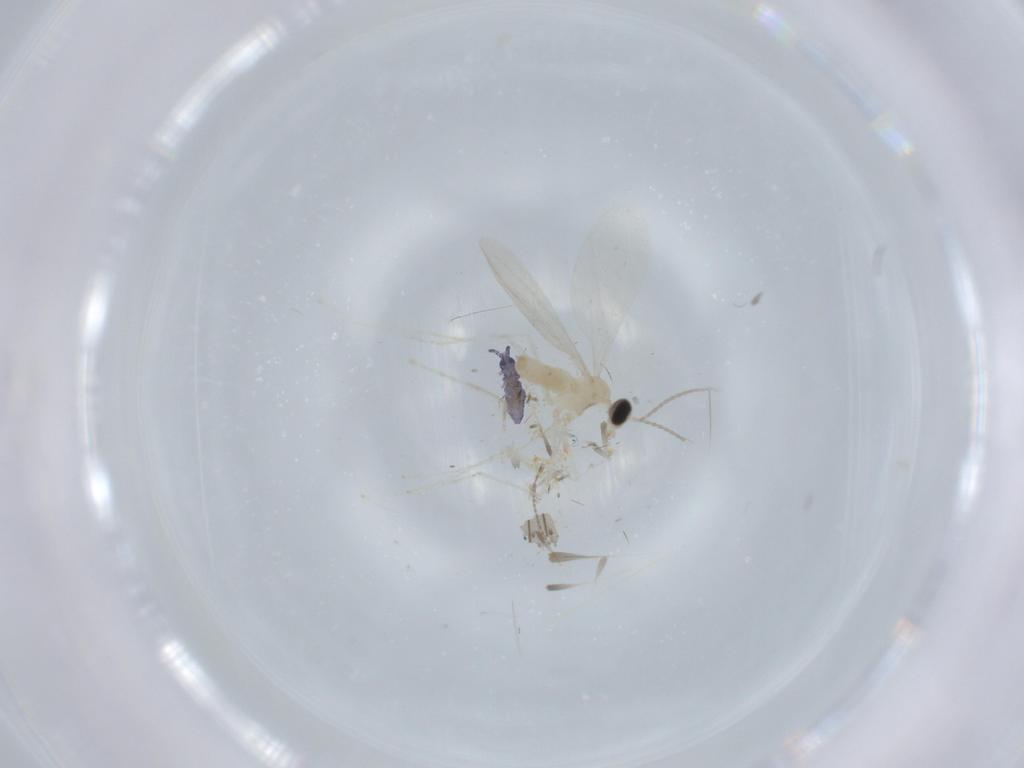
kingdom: Animalia
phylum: Arthropoda
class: Insecta
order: Diptera
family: Cecidomyiidae
